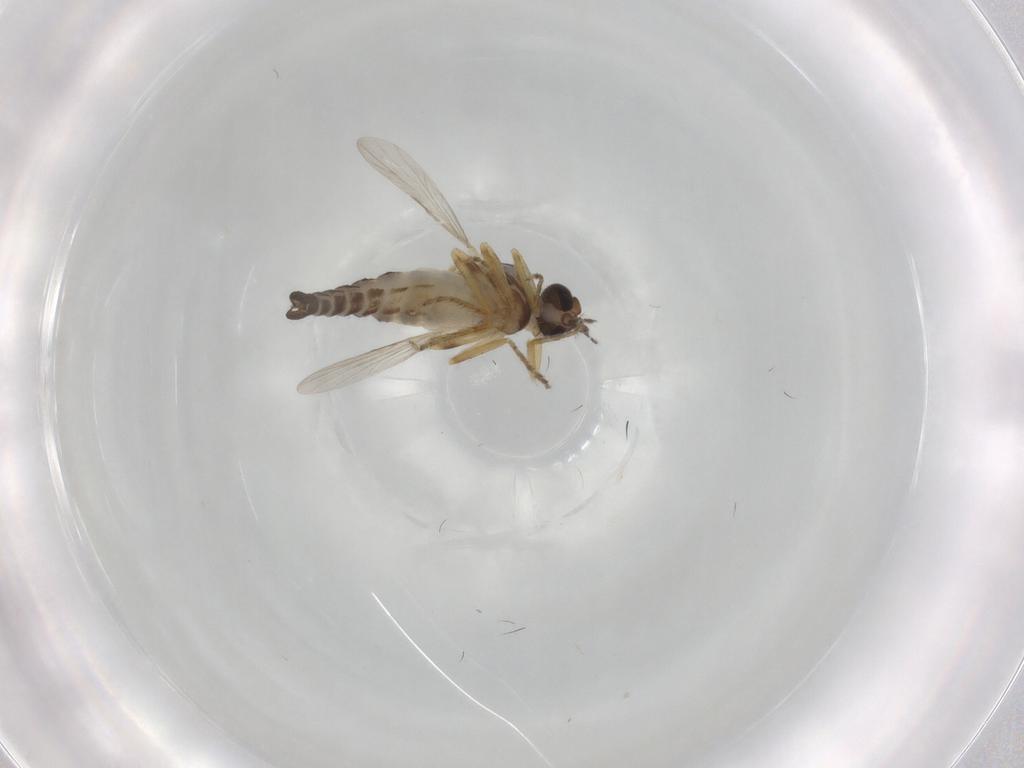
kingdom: Animalia
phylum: Arthropoda
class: Insecta
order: Diptera
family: Ceratopogonidae
